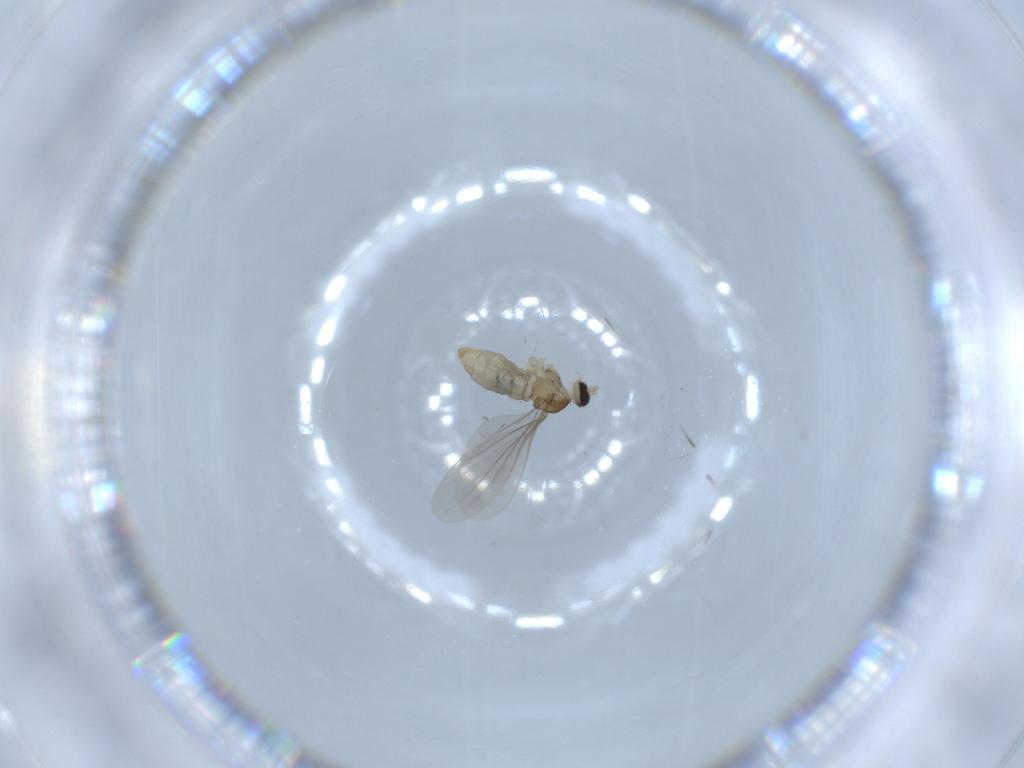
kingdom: Animalia
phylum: Arthropoda
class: Insecta
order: Diptera
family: Cecidomyiidae
